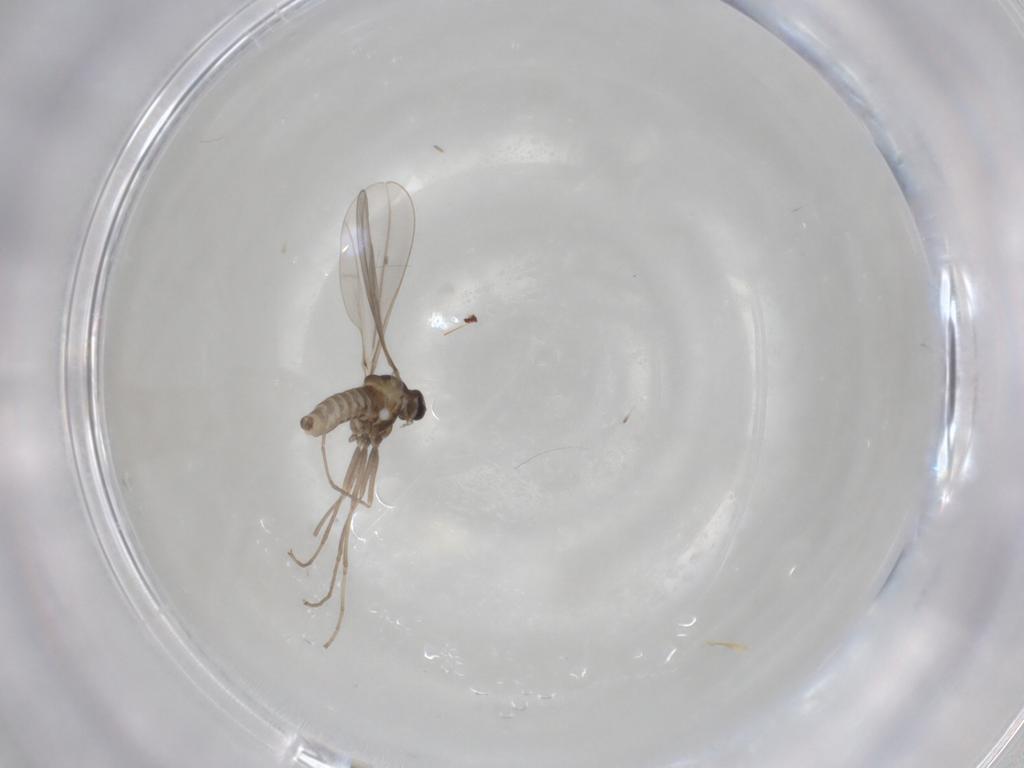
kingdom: Animalia
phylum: Arthropoda
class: Insecta
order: Diptera
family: Cecidomyiidae
